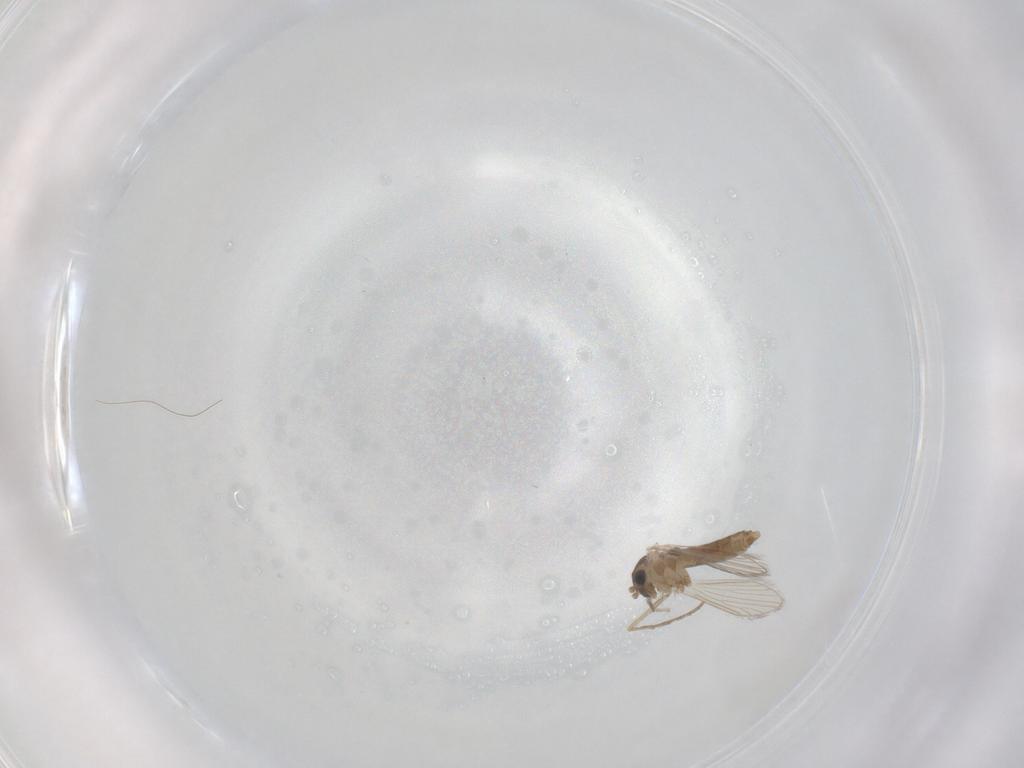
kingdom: Animalia
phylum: Arthropoda
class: Insecta
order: Diptera
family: Psychodidae
